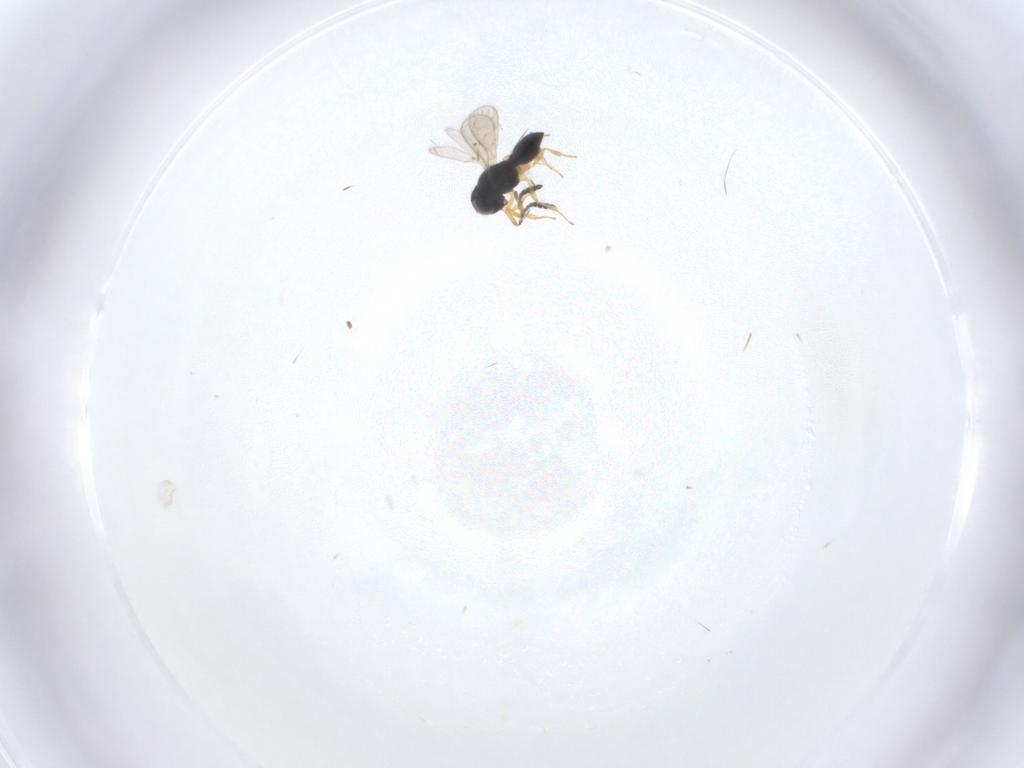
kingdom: Animalia
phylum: Arthropoda
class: Insecta
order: Hymenoptera
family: Scelionidae
